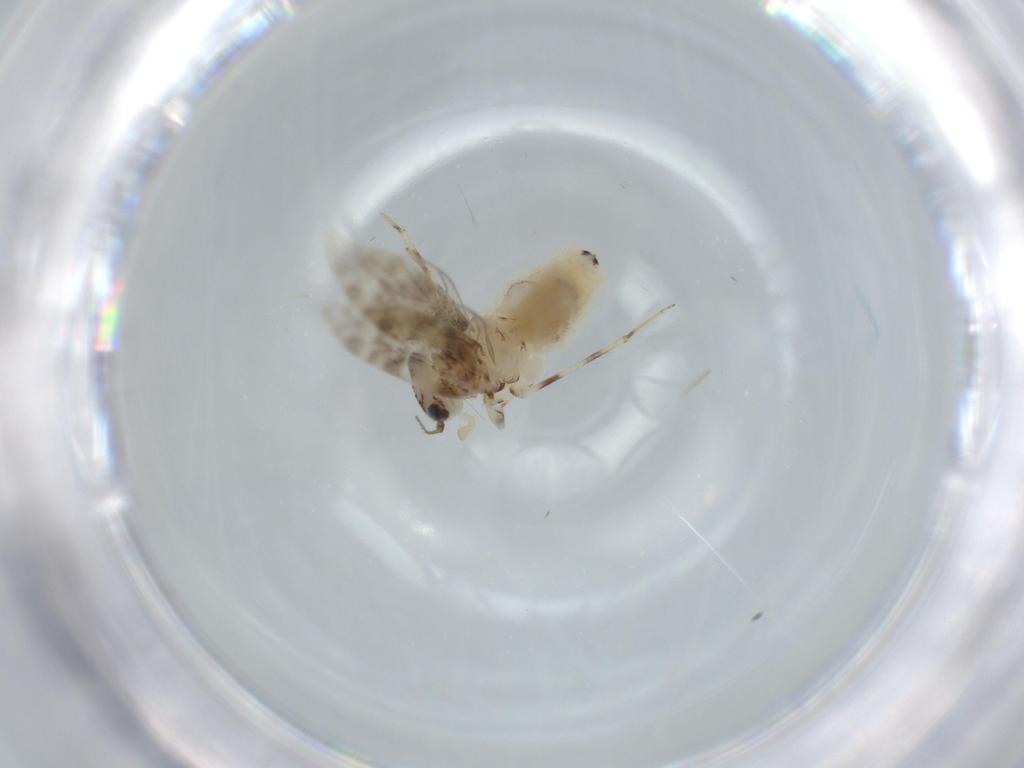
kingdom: Animalia
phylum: Arthropoda
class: Insecta
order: Psocodea
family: Lepidopsocidae
